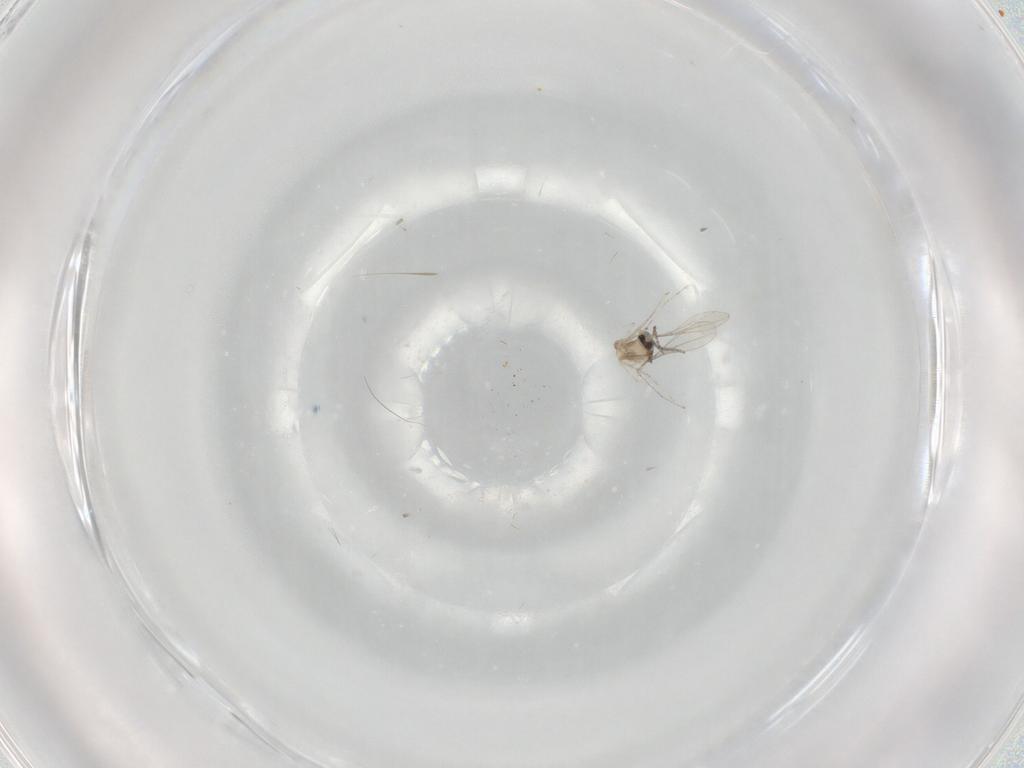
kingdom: Animalia
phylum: Arthropoda
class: Insecta
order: Diptera
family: Cecidomyiidae
